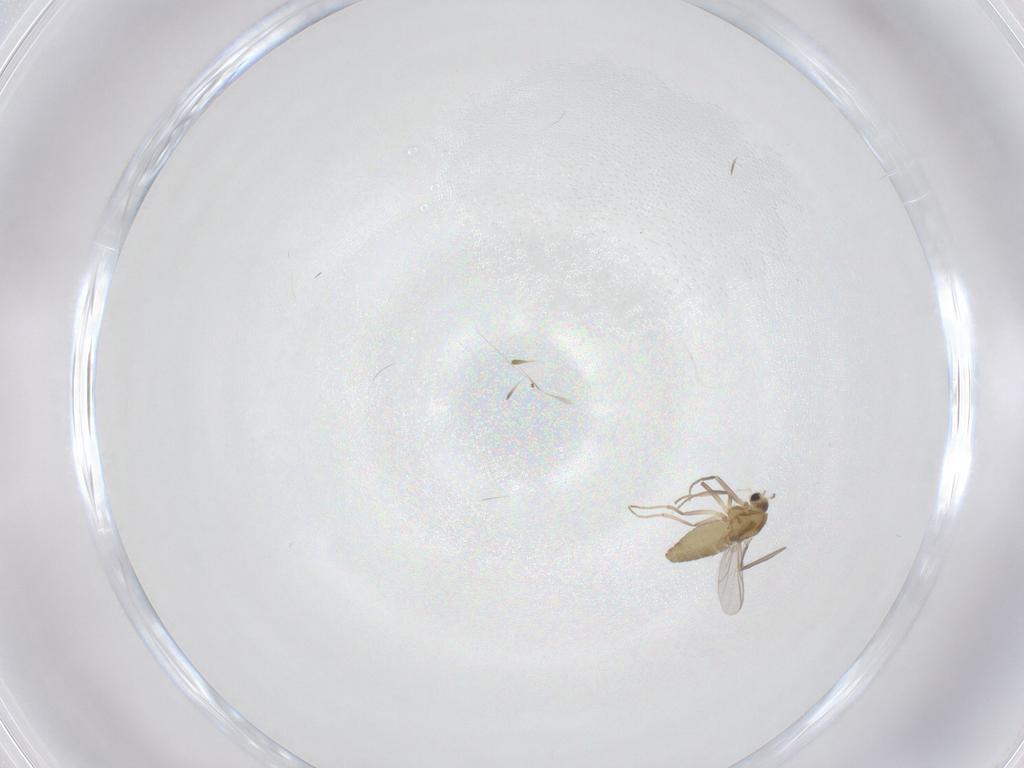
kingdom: Animalia
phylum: Arthropoda
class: Insecta
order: Diptera
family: Chironomidae
